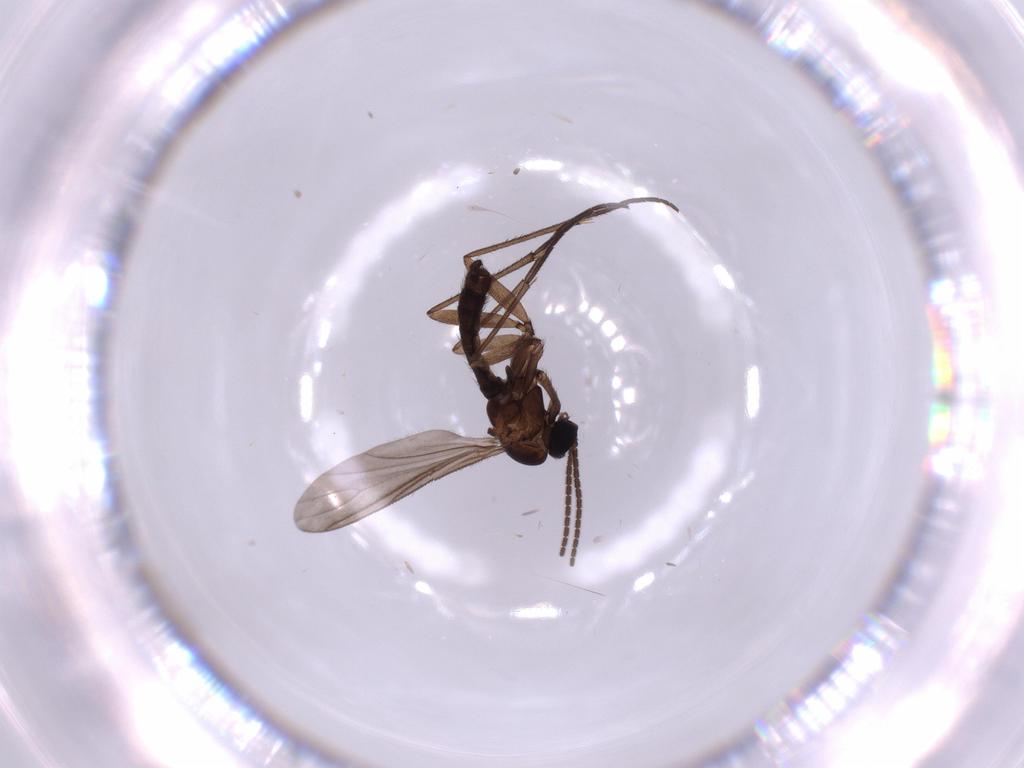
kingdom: Animalia
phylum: Arthropoda
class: Insecta
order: Diptera
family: Sciaridae
